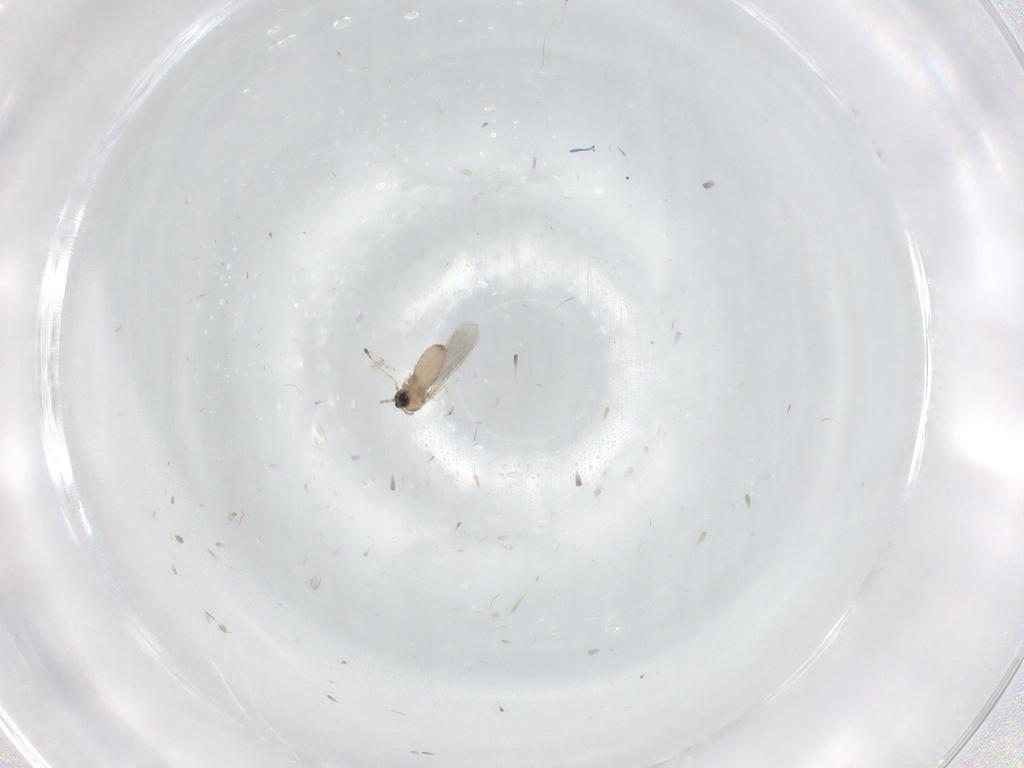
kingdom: Animalia
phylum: Arthropoda
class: Insecta
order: Diptera
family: Cecidomyiidae
